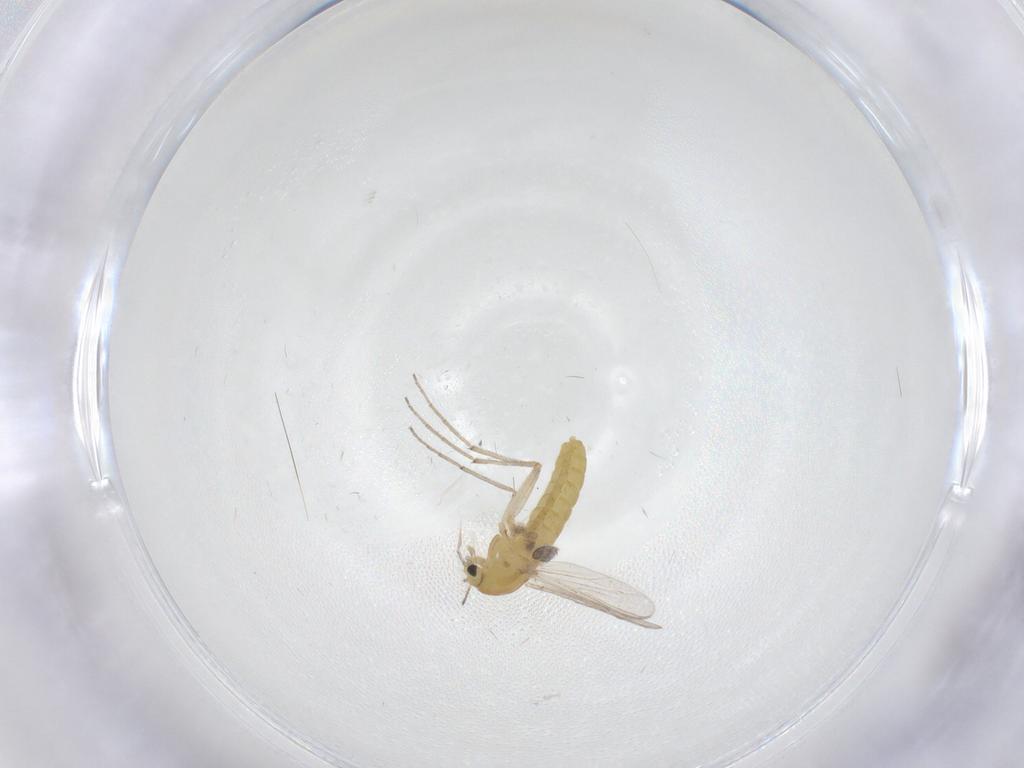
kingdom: Animalia
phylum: Arthropoda
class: Insecta
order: Diptera
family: Chironomidae
